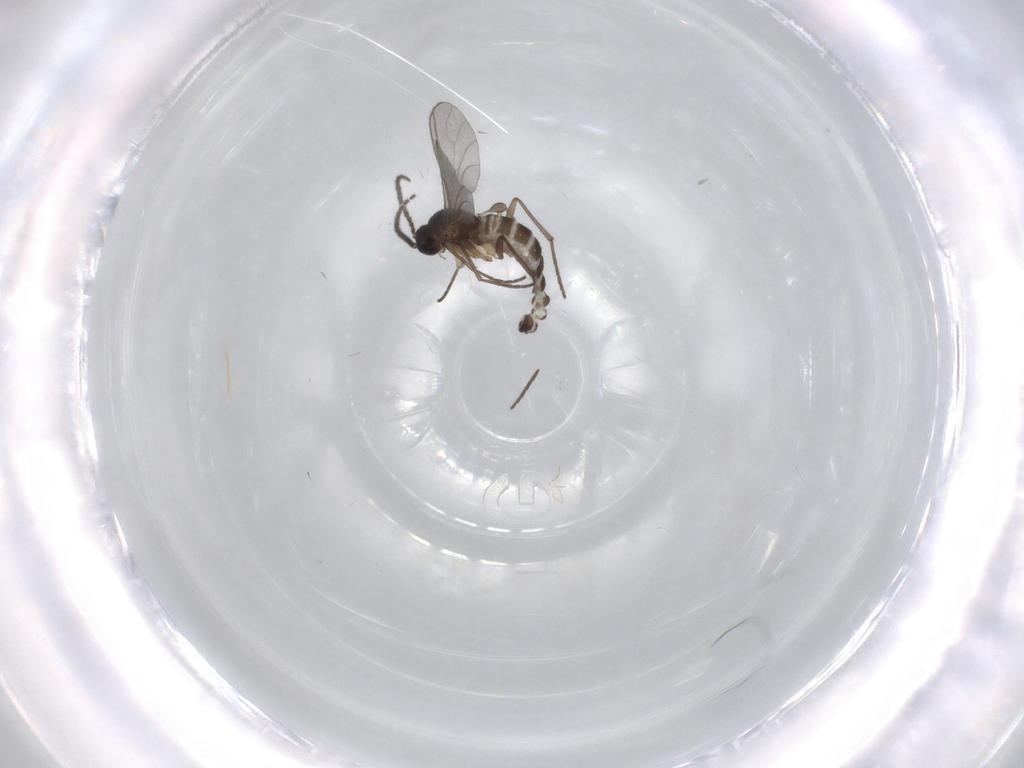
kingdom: Animalia
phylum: Arthropoda
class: Insecta
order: Diptera
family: Sciaridae
